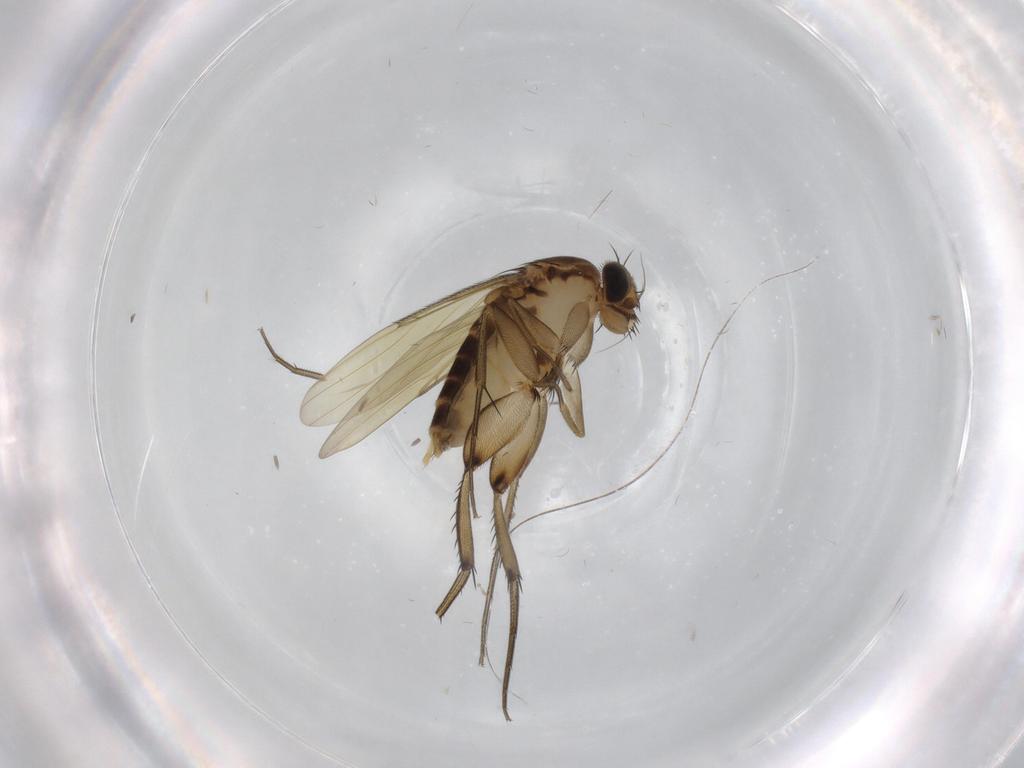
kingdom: Animalia
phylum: Arthropoda
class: Insecta
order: Diptera
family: Phoridae
